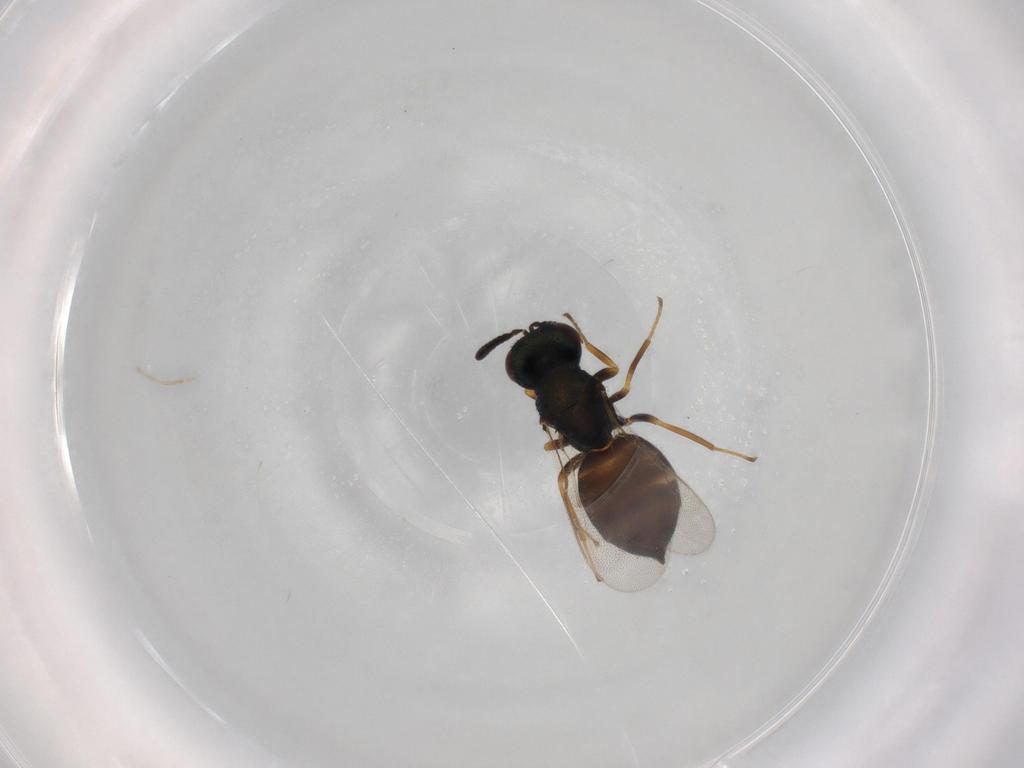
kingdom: Animalia
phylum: Arthropoda
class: Insecta
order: Hymenoptera
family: Pteromalidae
